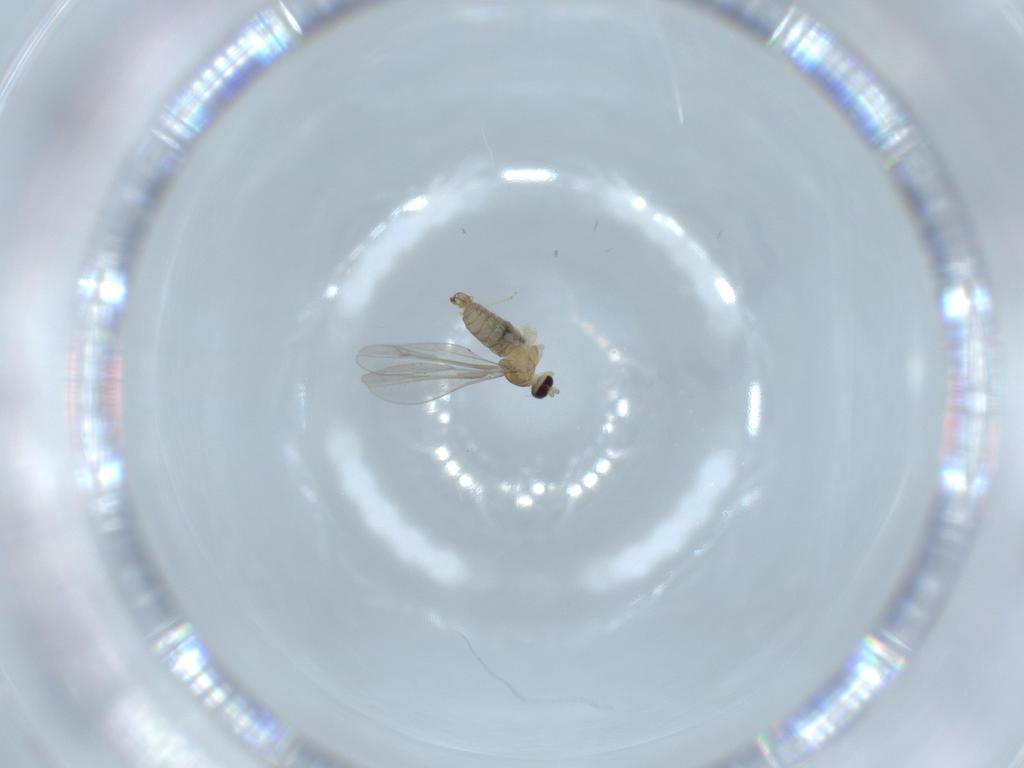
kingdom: Animalia
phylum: Arthropoda
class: Insecta
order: Diptera
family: Cecidomyiidae
